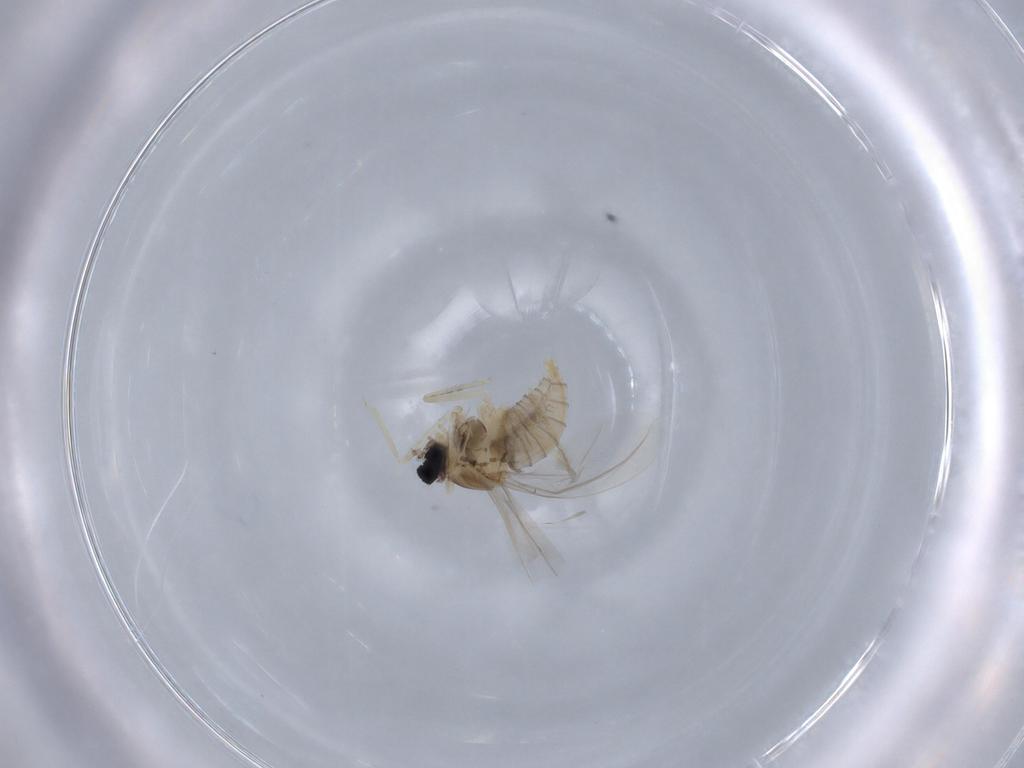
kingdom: Animalia
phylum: Arthropoda
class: Insecta
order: Diptera
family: Cecidomyiidae
